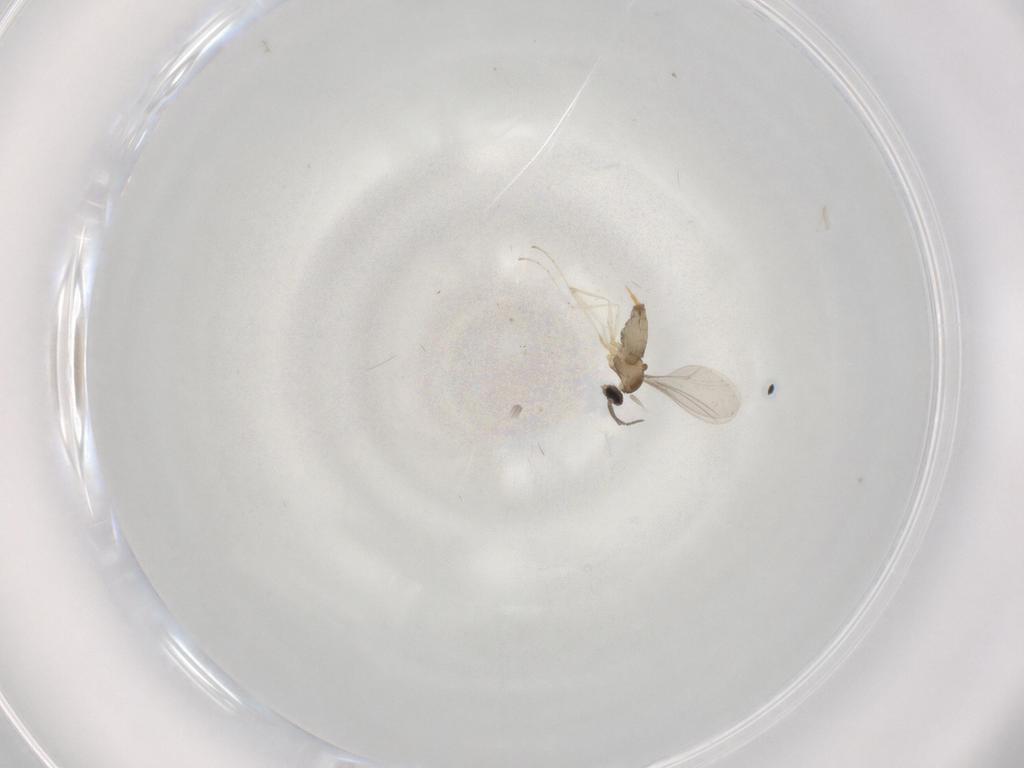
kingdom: Animalia
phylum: Arthropoda
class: Insecta
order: Diptera
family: Cecidomyiidae
